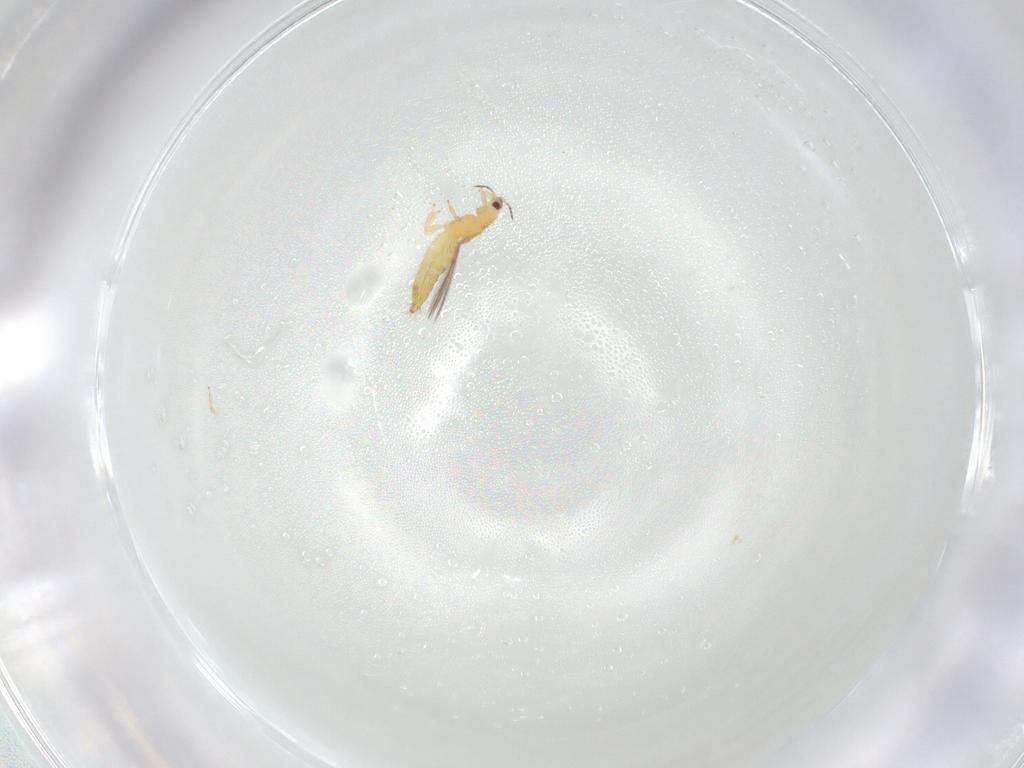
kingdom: Animalia
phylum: Arthropoda
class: Insecta
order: Thysanoptera
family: Thripidae
